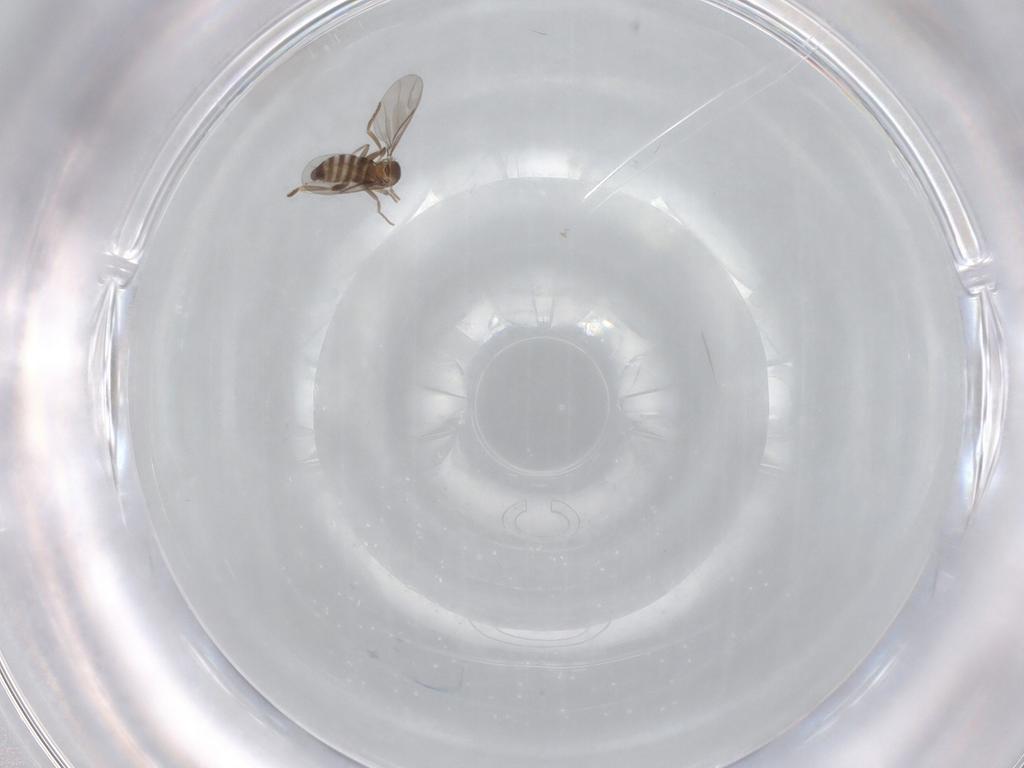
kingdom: Animalia
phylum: Arthropoda
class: Insecta
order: Diptera
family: Phoridae
